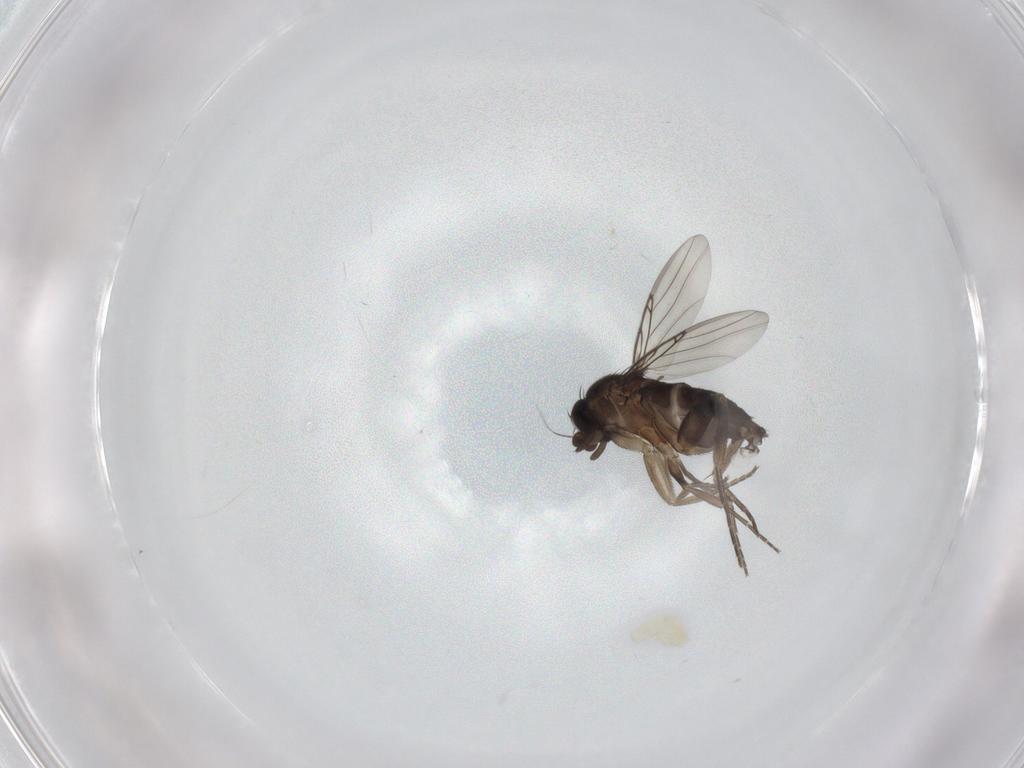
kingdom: Animalia
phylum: Arthropoda
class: Insecta
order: Diptera
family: Phoridae
